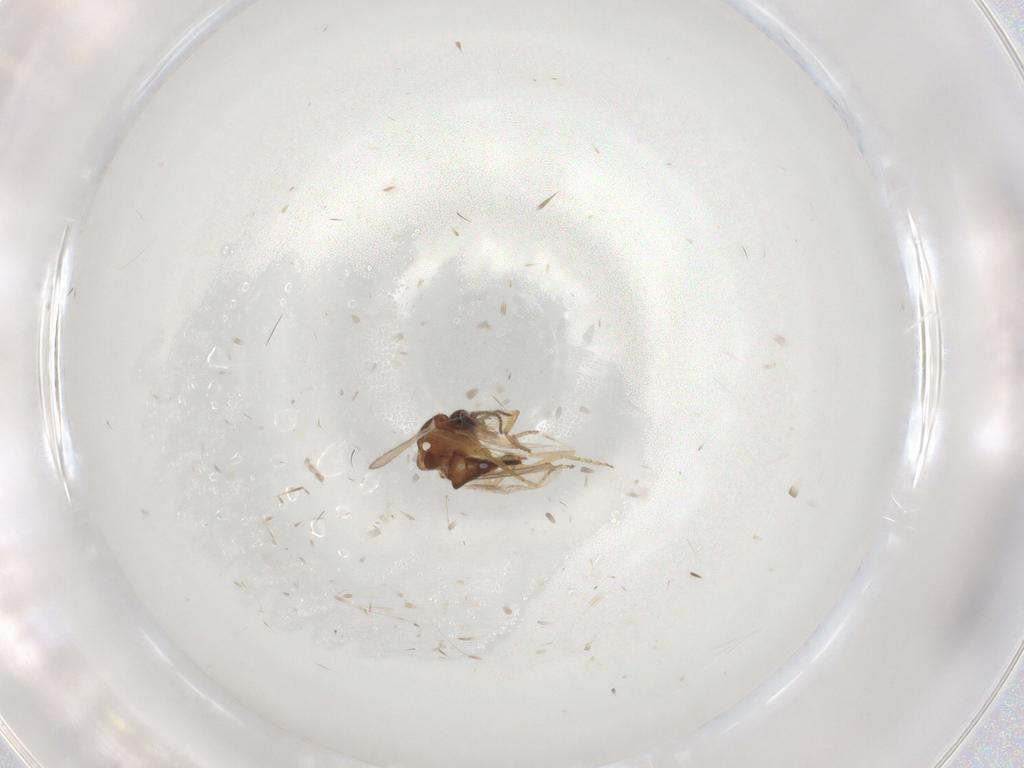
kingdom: Animalia
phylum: Arthropoda
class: Insecta
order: Diptera
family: Ceratopogonidae
